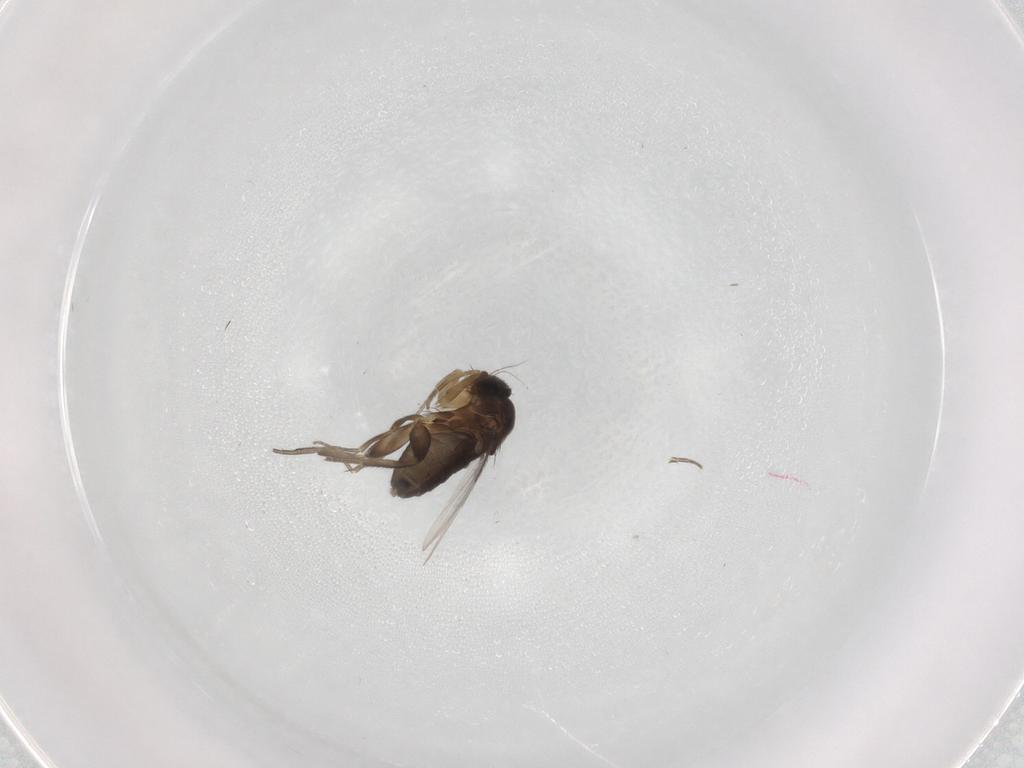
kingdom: Animalia
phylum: Arthropoda
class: Insecta
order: Diptera
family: Phoridae
